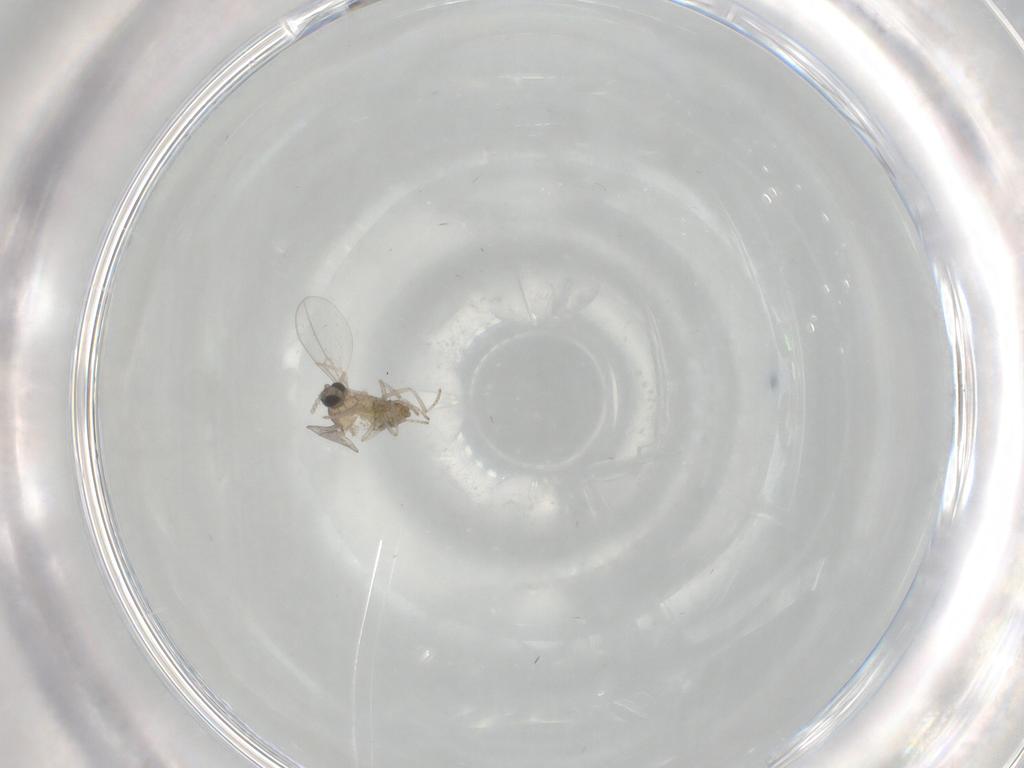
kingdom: Animalia
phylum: Arthropoda
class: Insecta
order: Diptera
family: Cecidomyiidae
